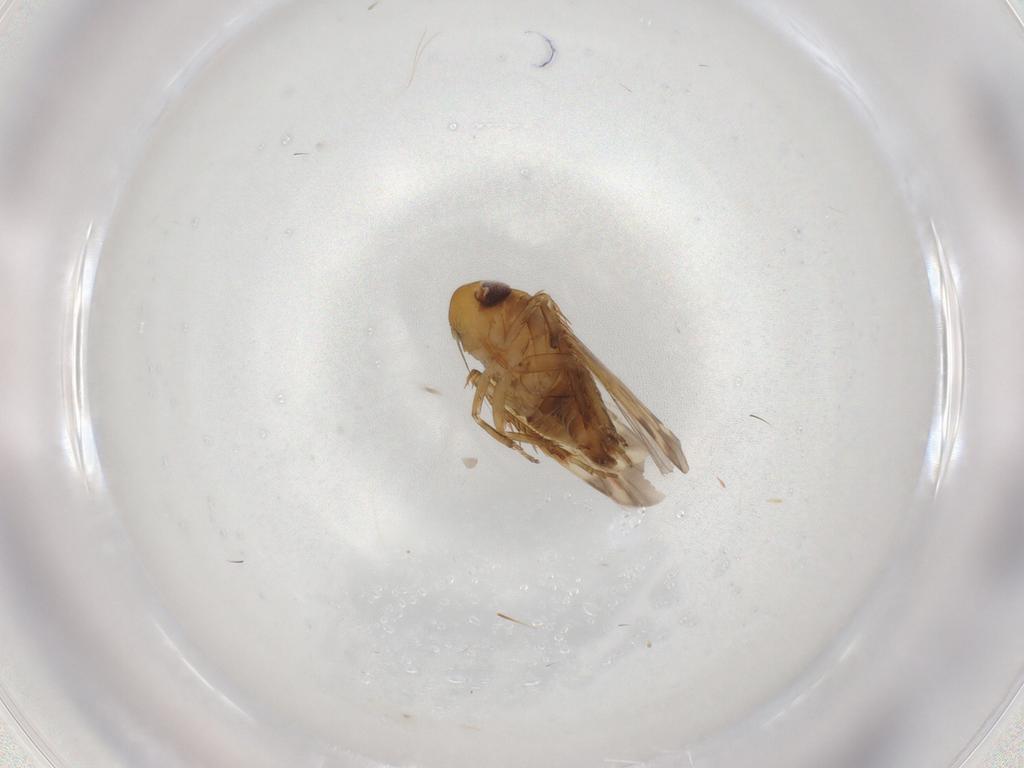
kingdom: Animalia
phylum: Arthropoda
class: Insecta
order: Hemiptera
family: Cicadellidae
